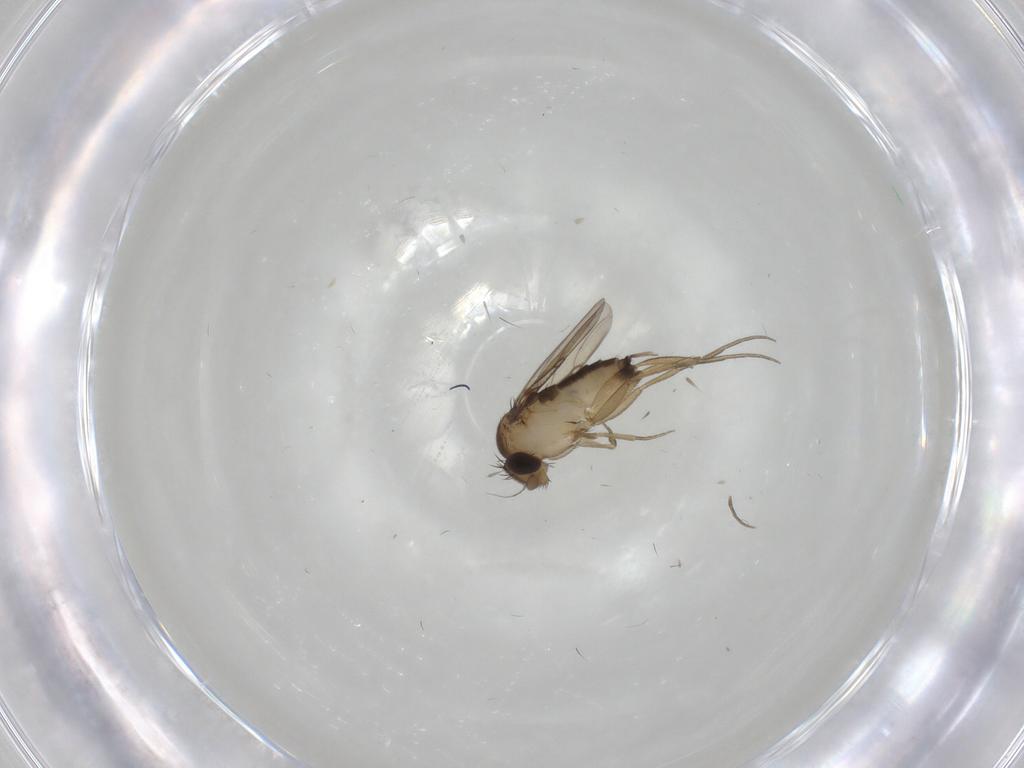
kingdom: Animalia
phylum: Arthropoda
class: Insecta
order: Diptera
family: Phoridae
